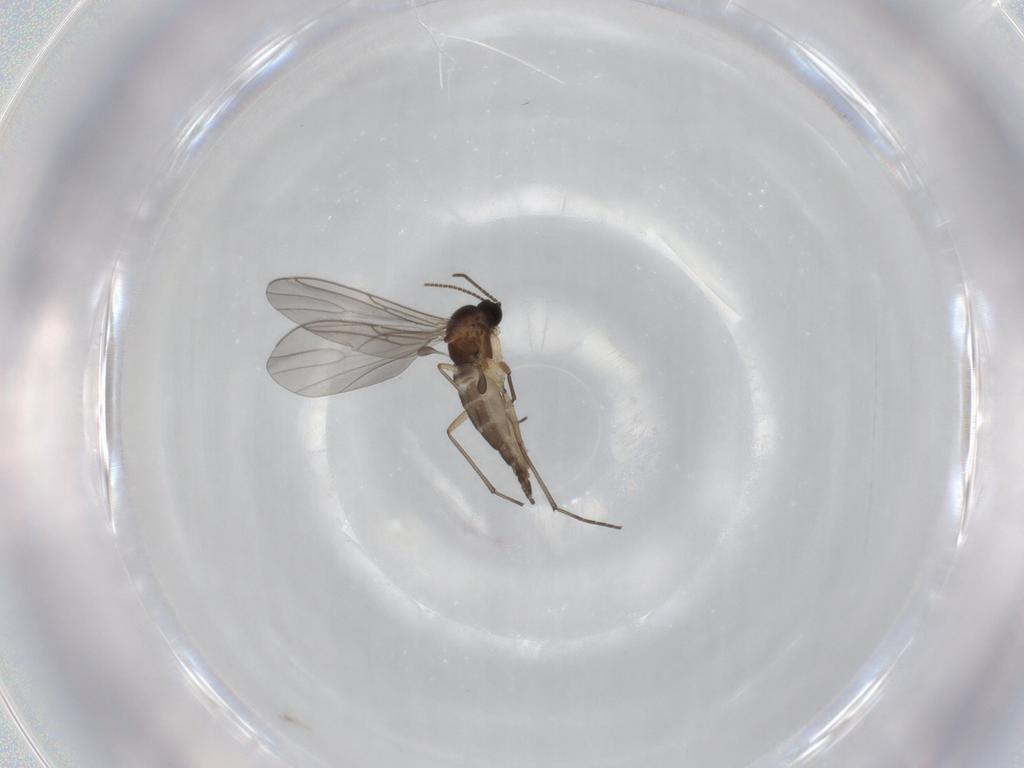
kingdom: Animalia
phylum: Arthropoda
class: Insecta
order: Diptera
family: Sciaridae
